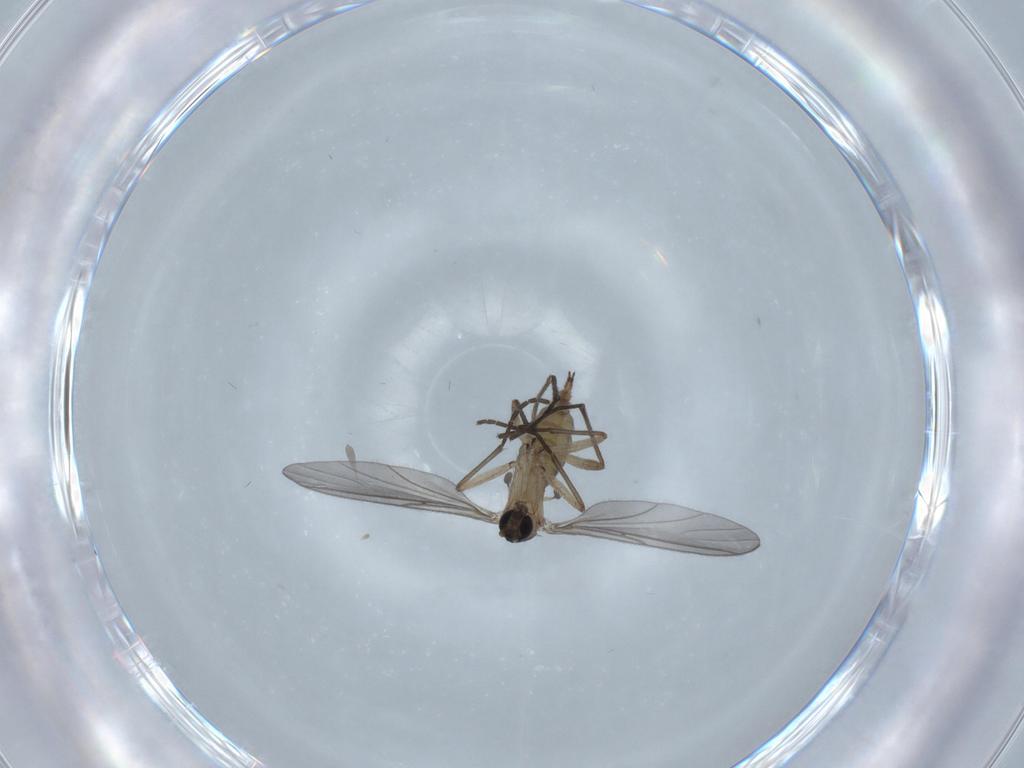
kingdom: Animalia
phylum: Arthropoda
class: Insecta
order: Diptera
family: Sciaridae
